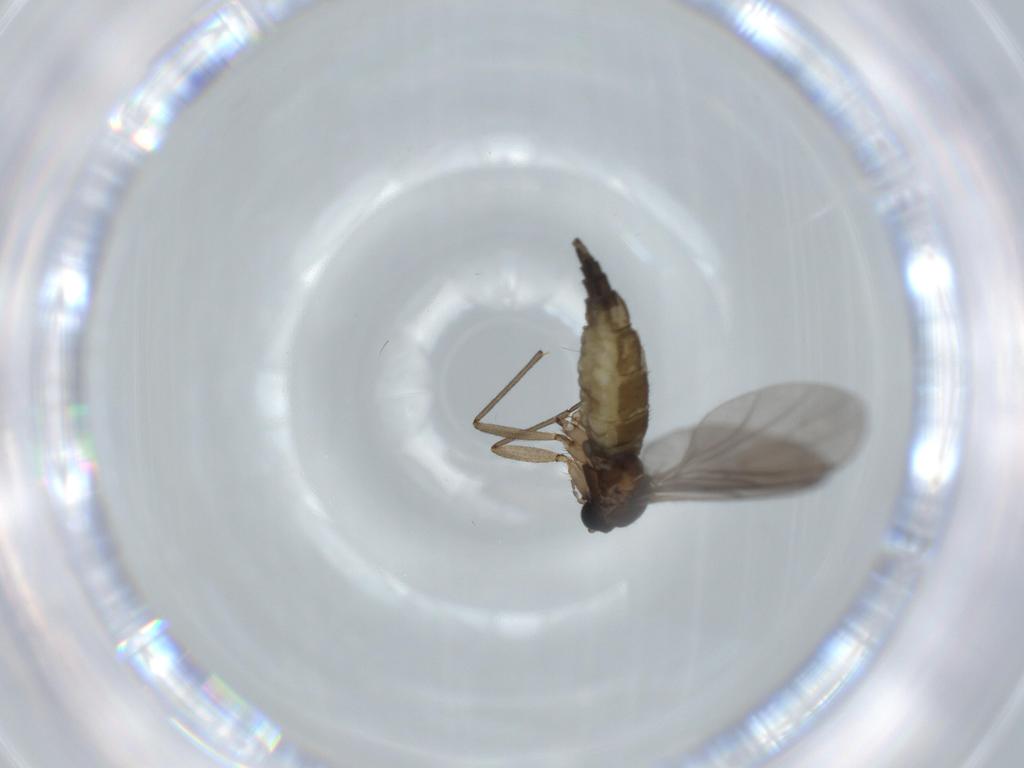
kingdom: Animalia
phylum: Arthropoda
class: Insecta
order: Diptera
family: Sciaridae
